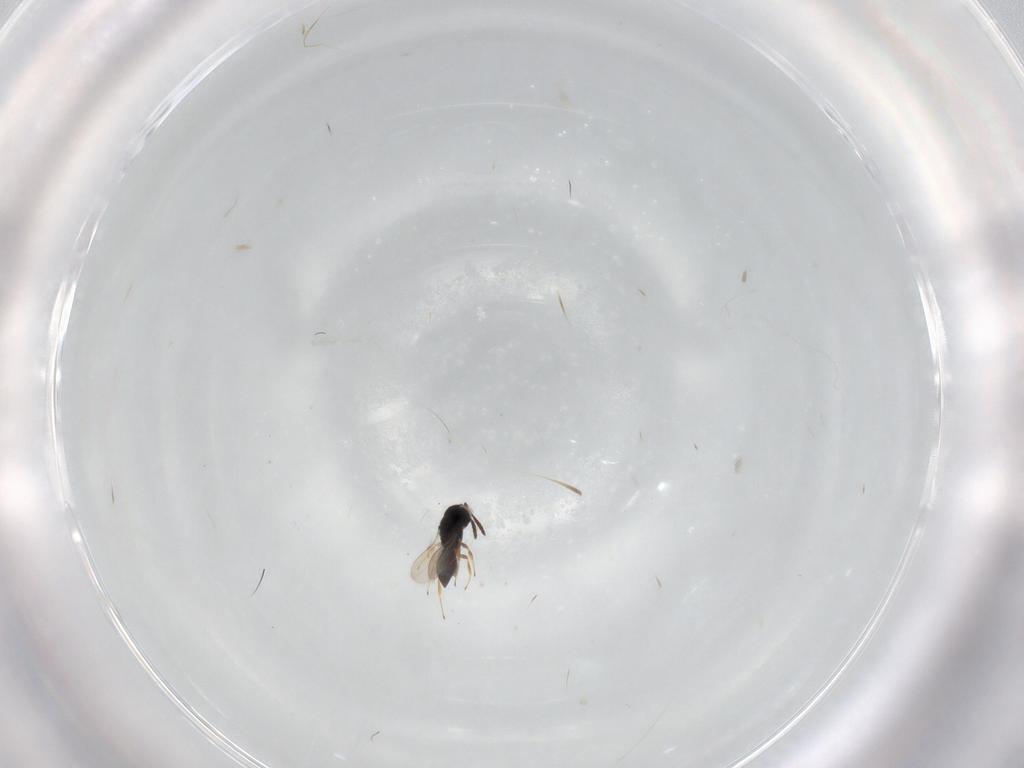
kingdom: Animalia
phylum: Arthropoda
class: Insecta
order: Hymenoptera
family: Scelionidae
